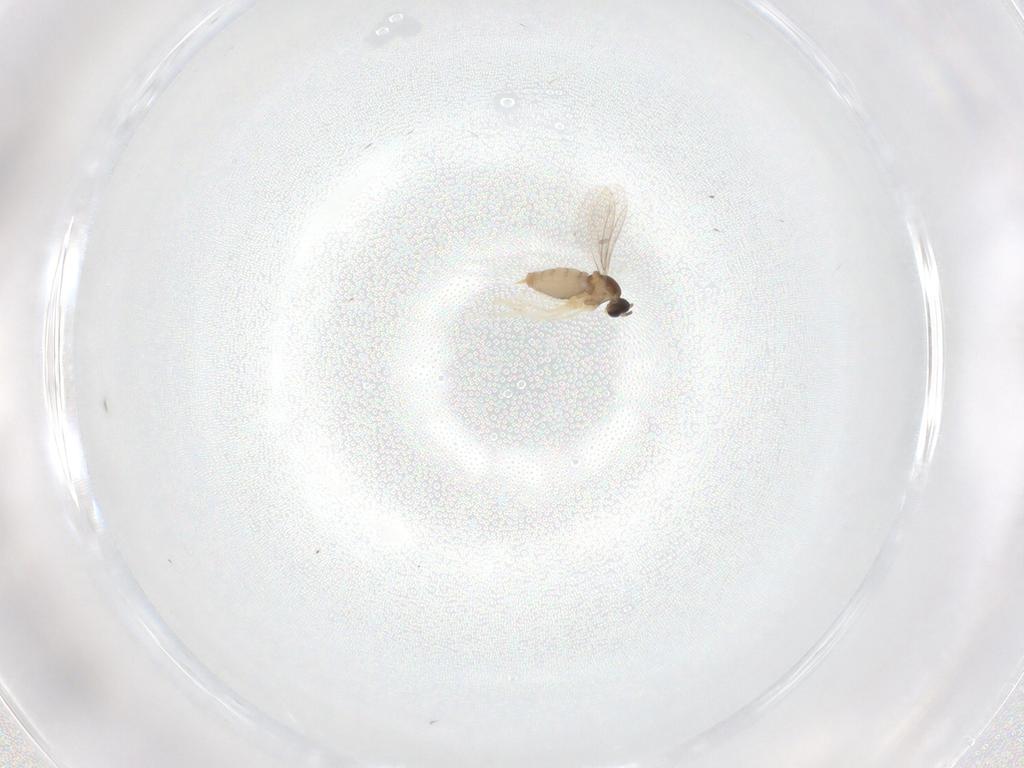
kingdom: Animalia
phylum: Arthropoda
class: Insecta
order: Diptera
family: Cecidomyiidae
